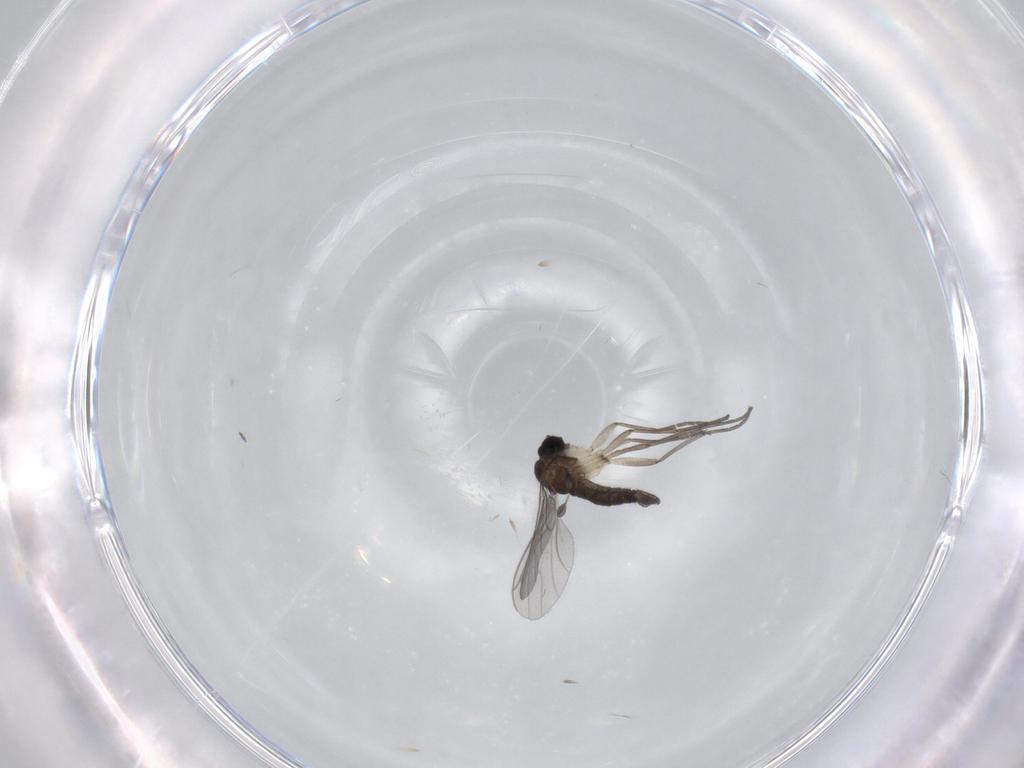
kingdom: Animalia
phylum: Arthropoda
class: Insecta
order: Diptera
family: Sciaridae
